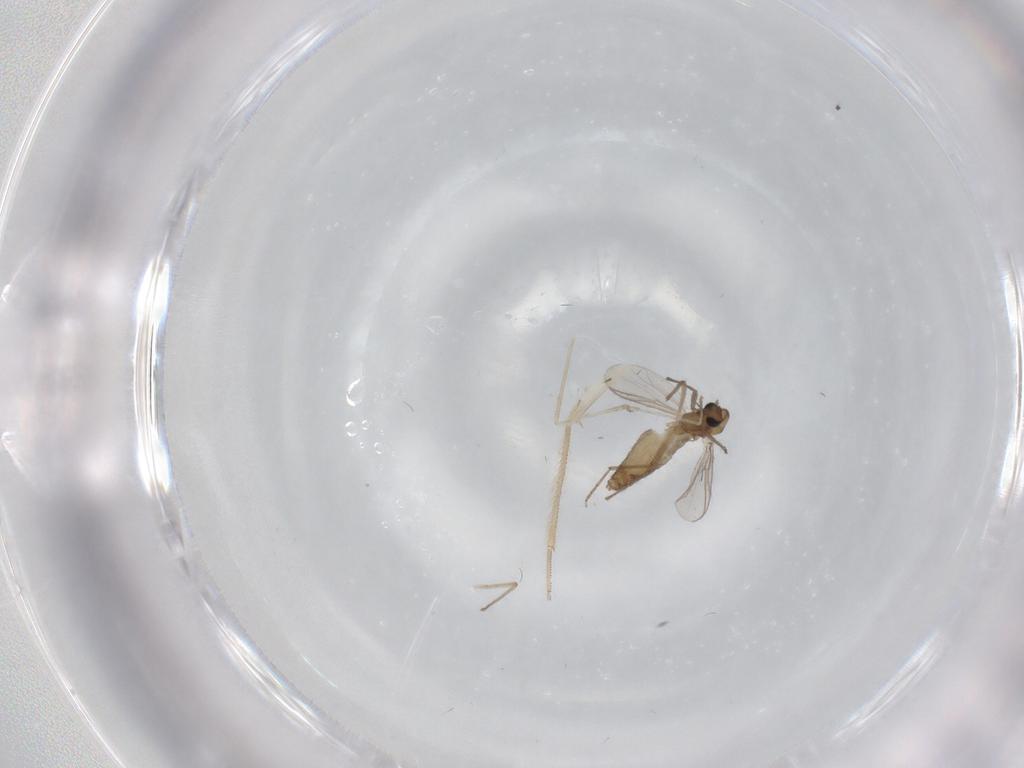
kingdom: Animalia
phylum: Arthropoda
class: Insecta
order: Diptera
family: Chironomidae
